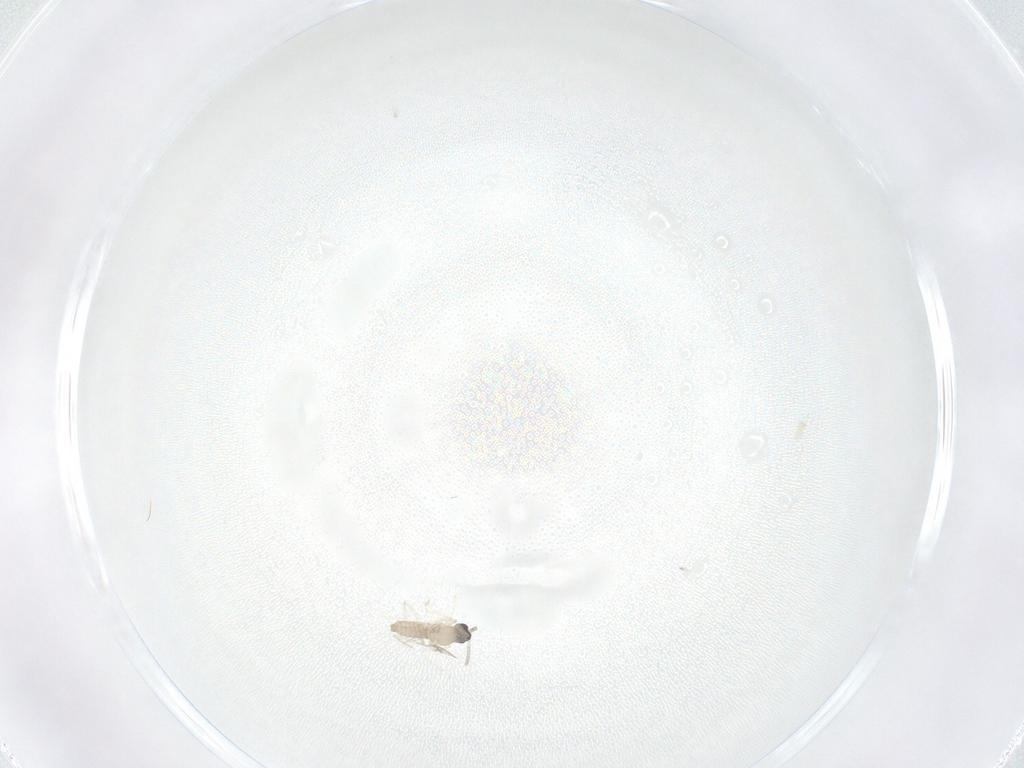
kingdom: Animalia
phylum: Arthropoda
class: Insecta
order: Diptera
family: Cecidomyiidae
